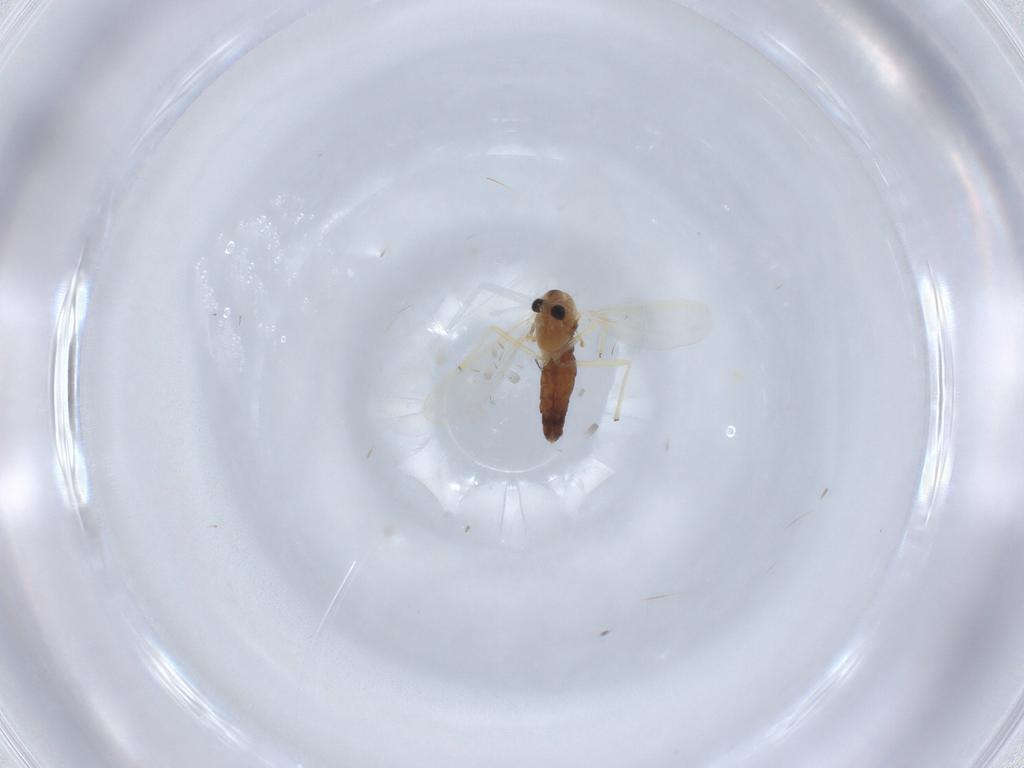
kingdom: Animalia
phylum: Arthropoda
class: Insecta
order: Diptera
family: Chironomidae
